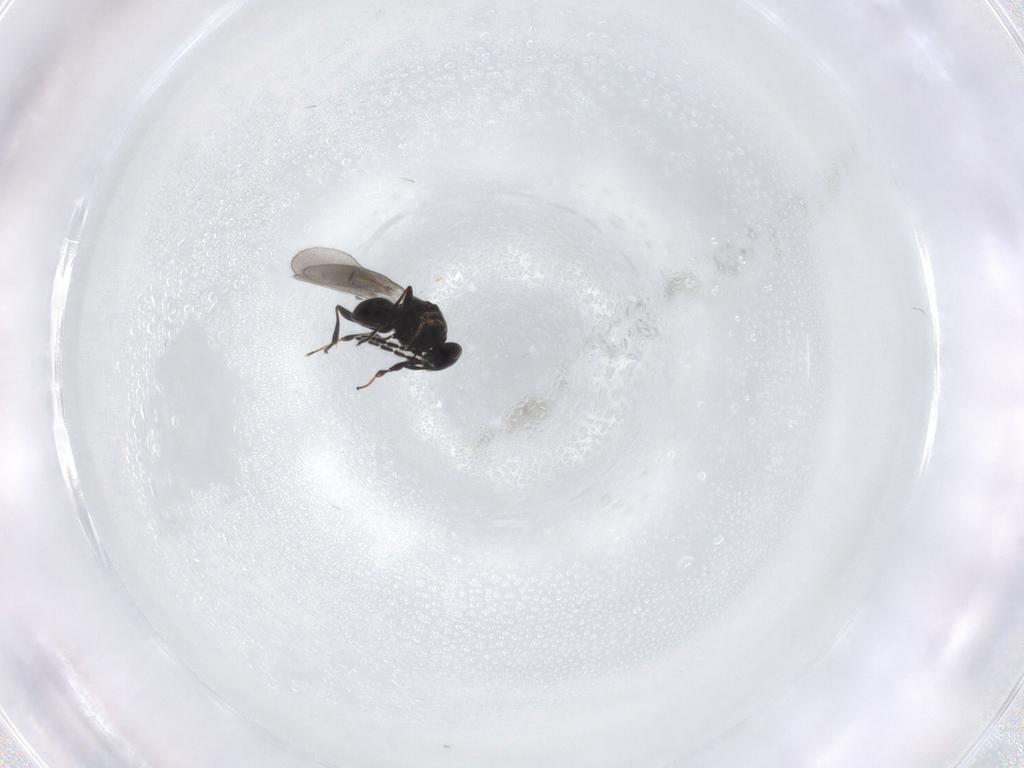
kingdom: Animalia
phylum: Arthropoda
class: Insecta
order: Hymenoptera
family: Platygastridae
